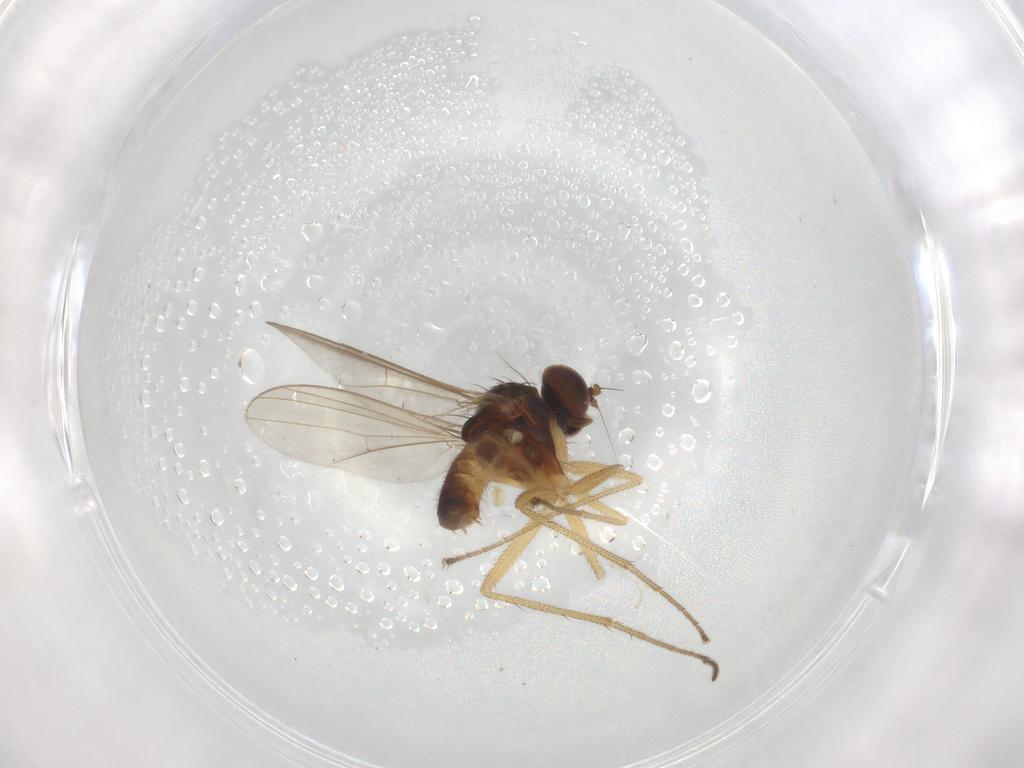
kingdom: Animalia
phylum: Arthropoda
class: Insecta
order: Diptera
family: Dolichopodidae
